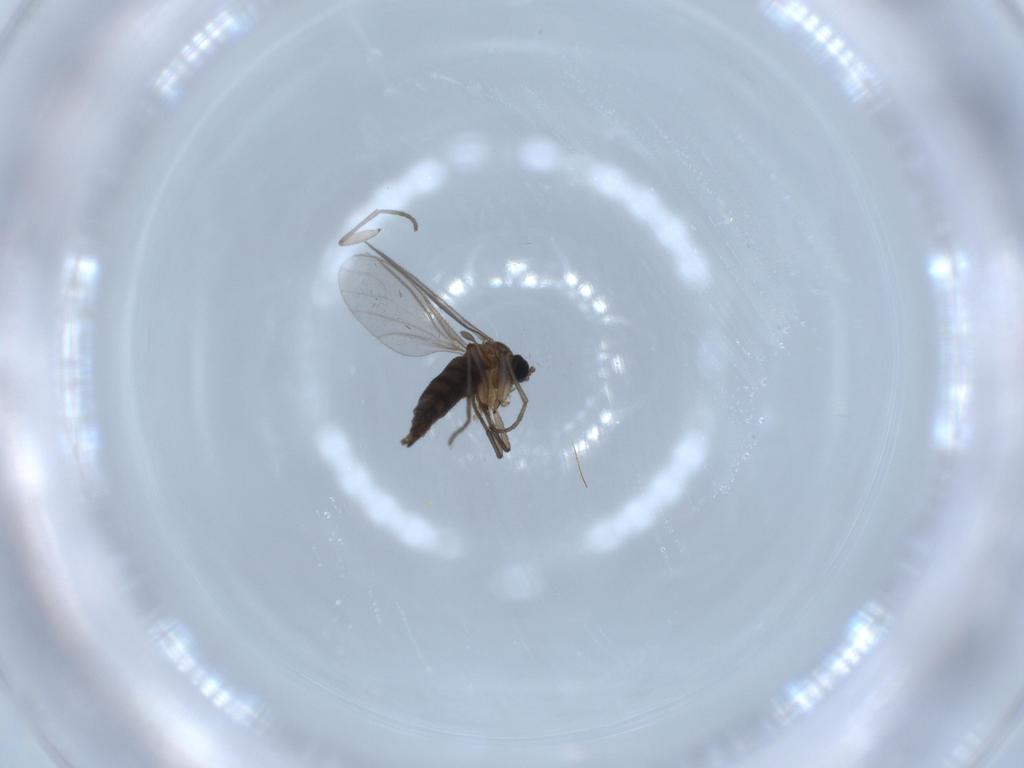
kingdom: Animalia
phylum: Arthropoda
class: Insecta
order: Diptera
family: Sciaridae
